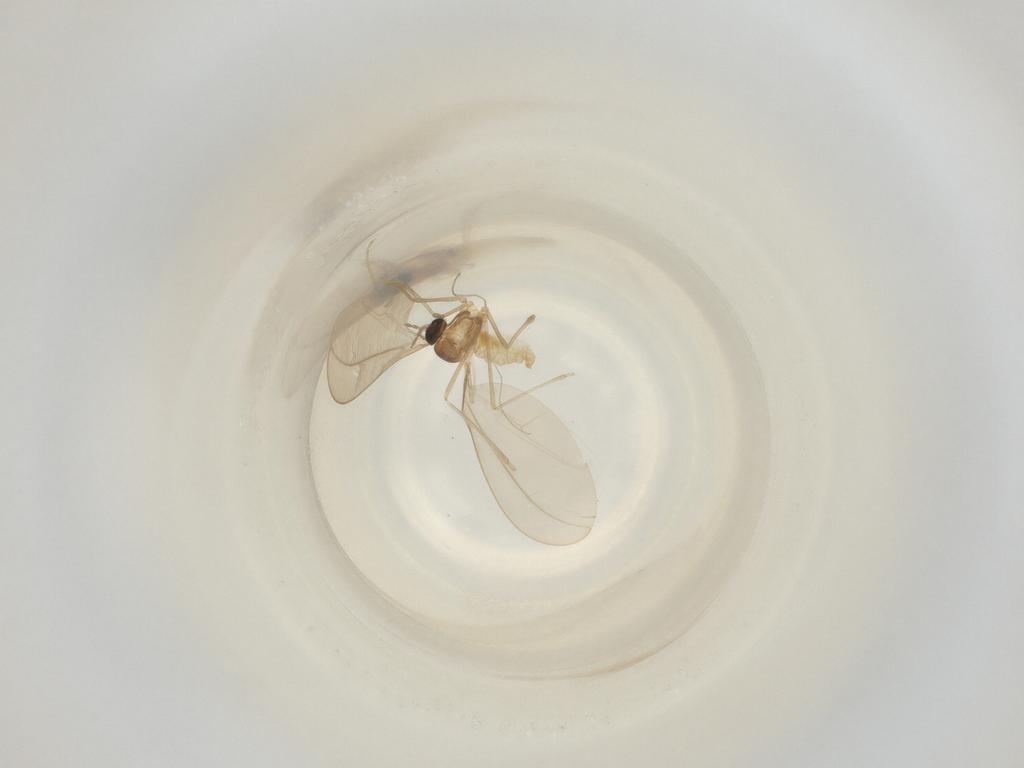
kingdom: Animalia
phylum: Arthropoda
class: Insecta
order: Diptera
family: Cecidomyiidae
